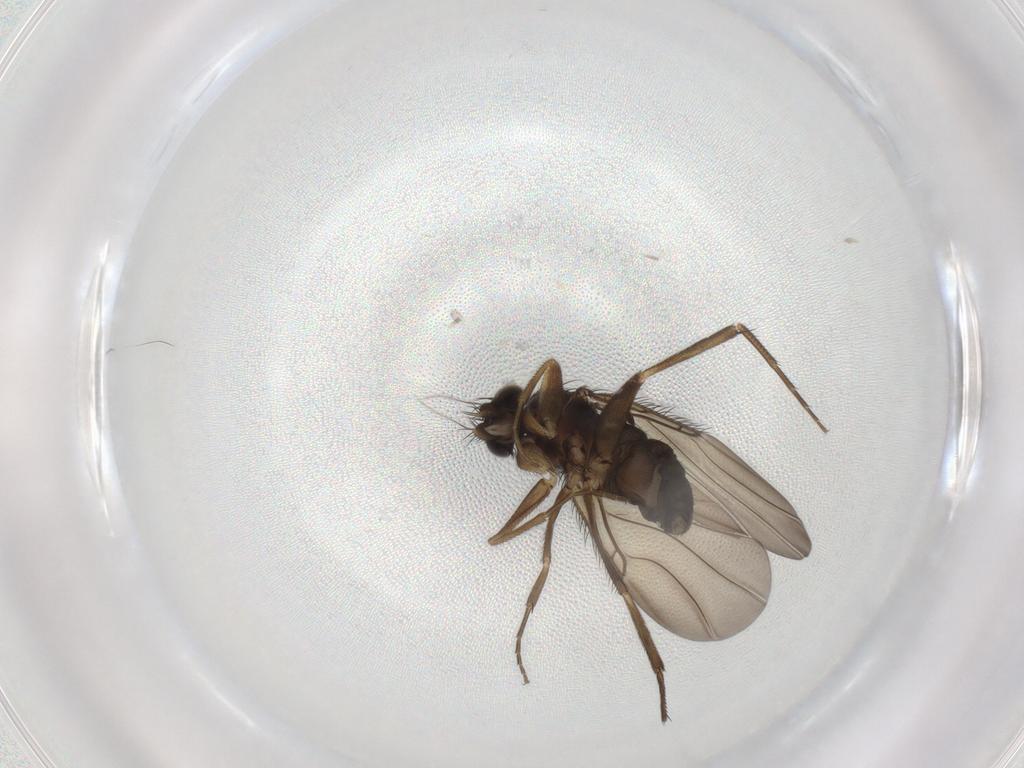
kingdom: Animalia
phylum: Arthropoda
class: Insecta
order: Diptera
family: Phoridae
